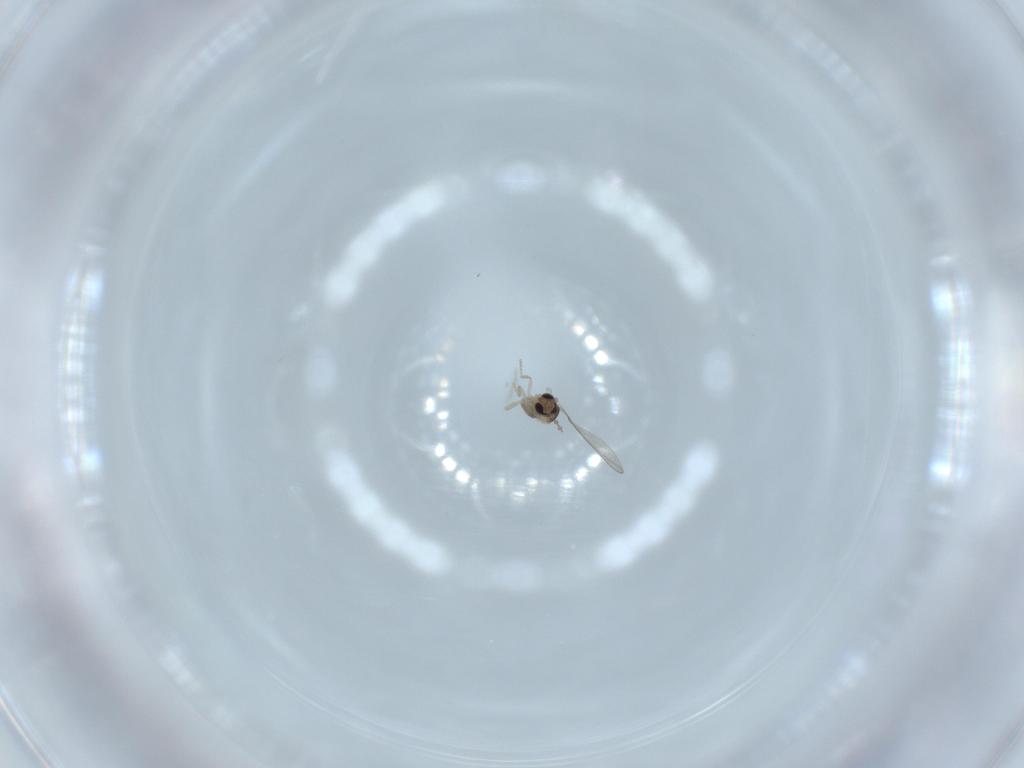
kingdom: Animalia
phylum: Arthropoda
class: Insecta
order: Diptera
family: Cecidomyiidae
